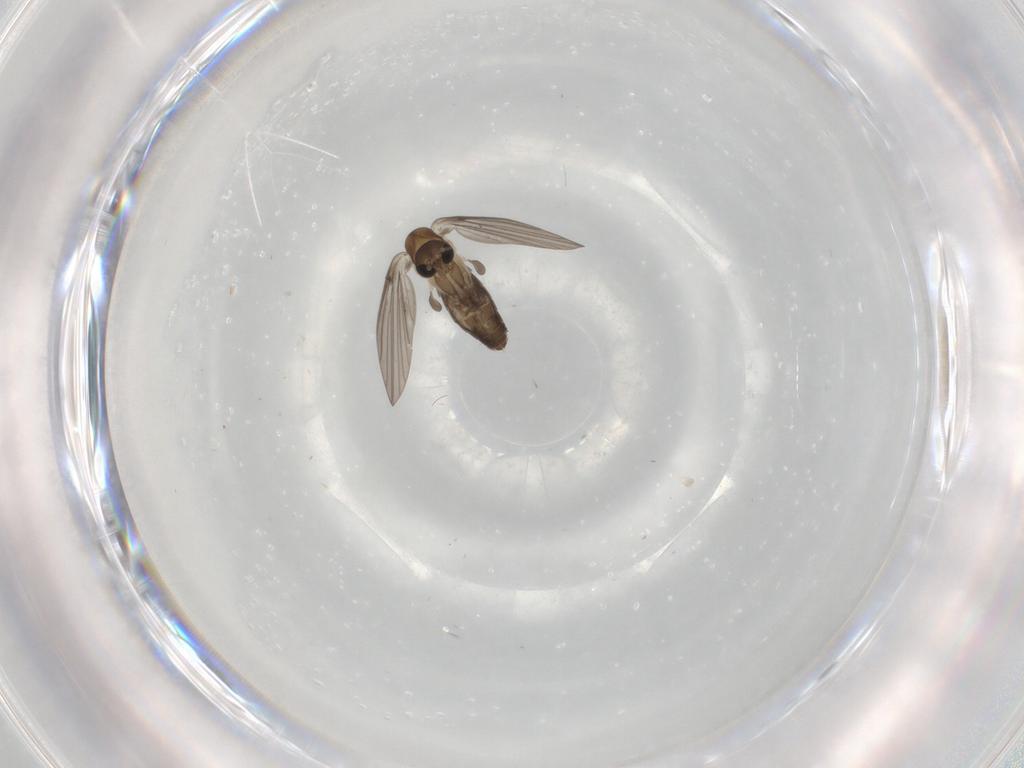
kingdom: Animalia
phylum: Arthropoda
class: Insecta
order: Diptera
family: Psychodidae
